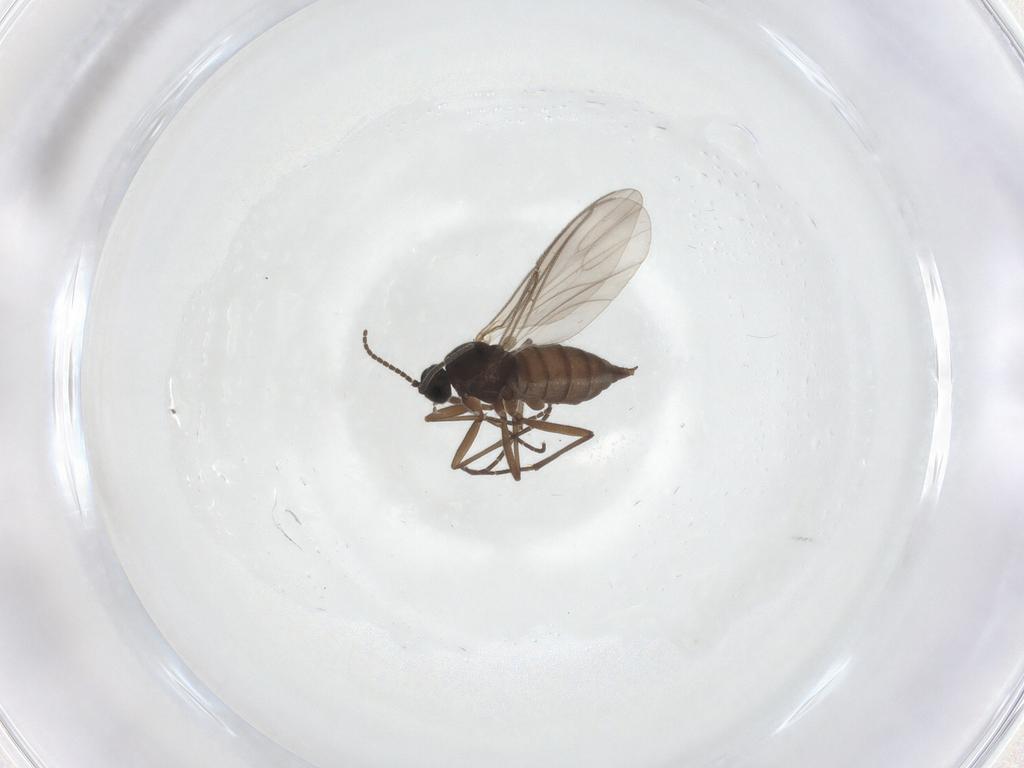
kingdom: Animalia
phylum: Arthropoda
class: Insecta
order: Diptera
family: Sciaridae
